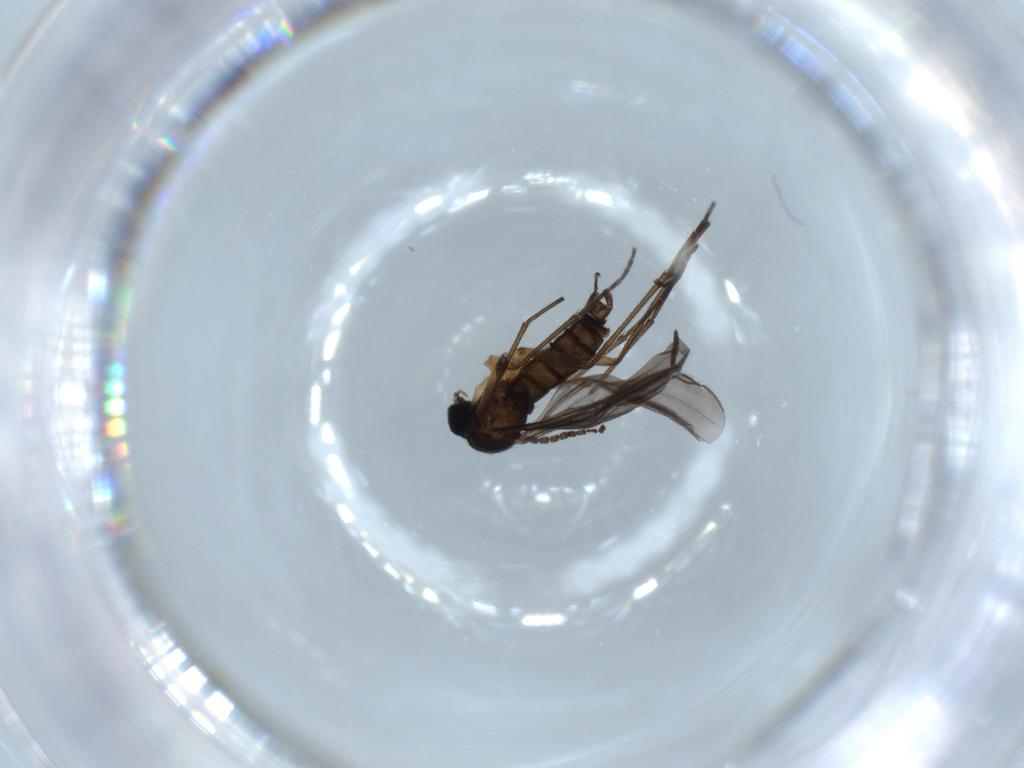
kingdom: Animalia
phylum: Arthropoda
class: Insecta
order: Diptera
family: Sciaridae
